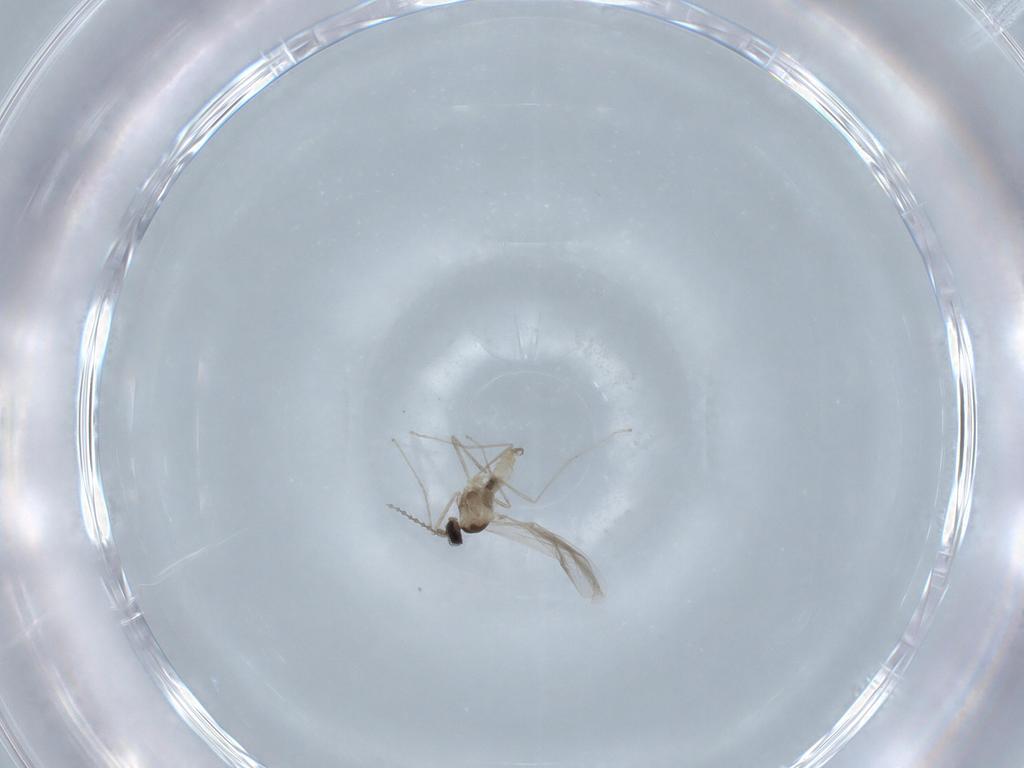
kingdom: Animalia
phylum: Arthropoda
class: Insecta
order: Diptera
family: Cecidomyiidae
